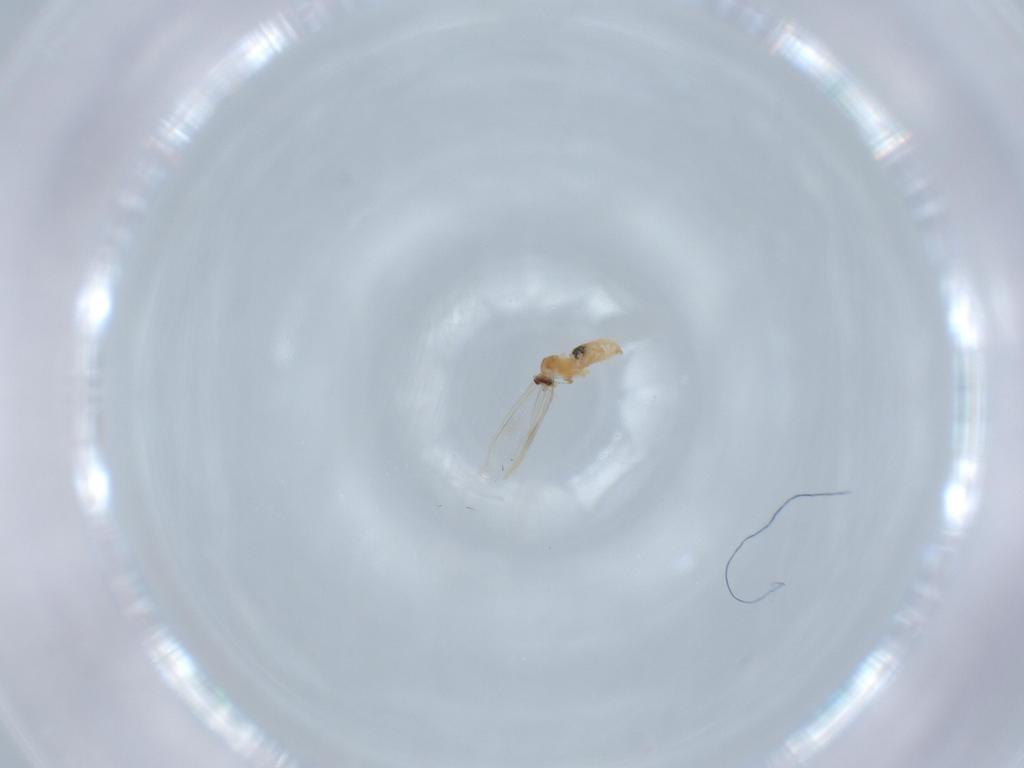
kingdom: Animalia
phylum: Arthropoda
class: Insecta
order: Diptera
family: Cecidomyiidae
